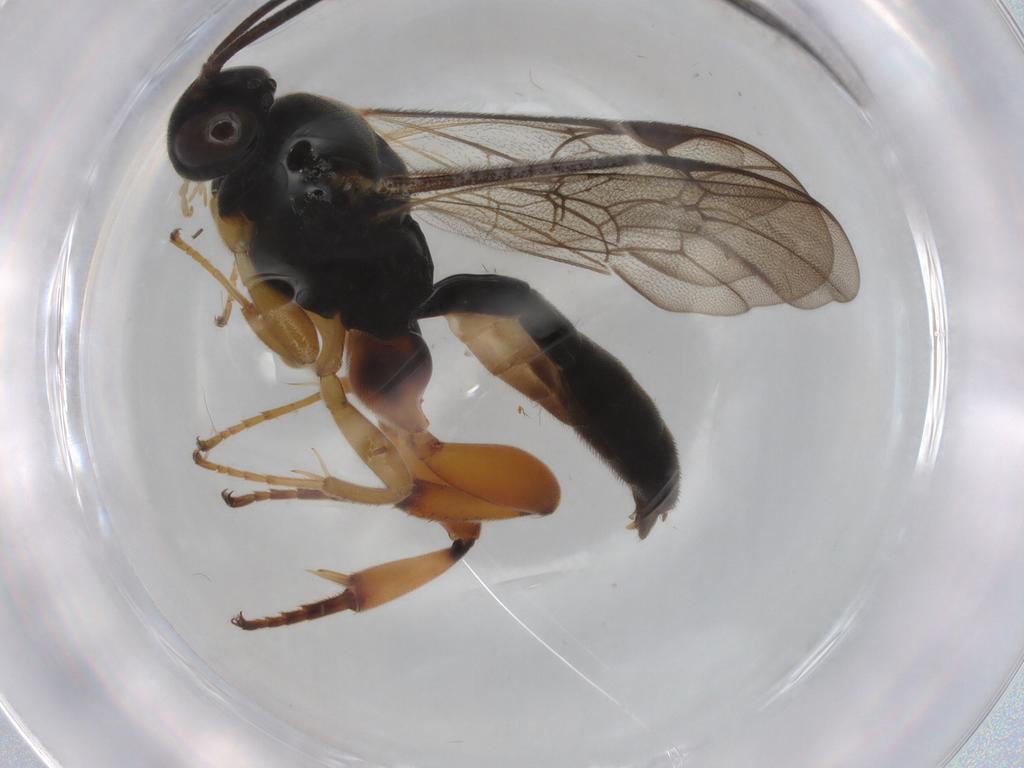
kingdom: Animalia
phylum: Arthropoda
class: Insecta
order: Hymenoptera
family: Ichneumonidae
